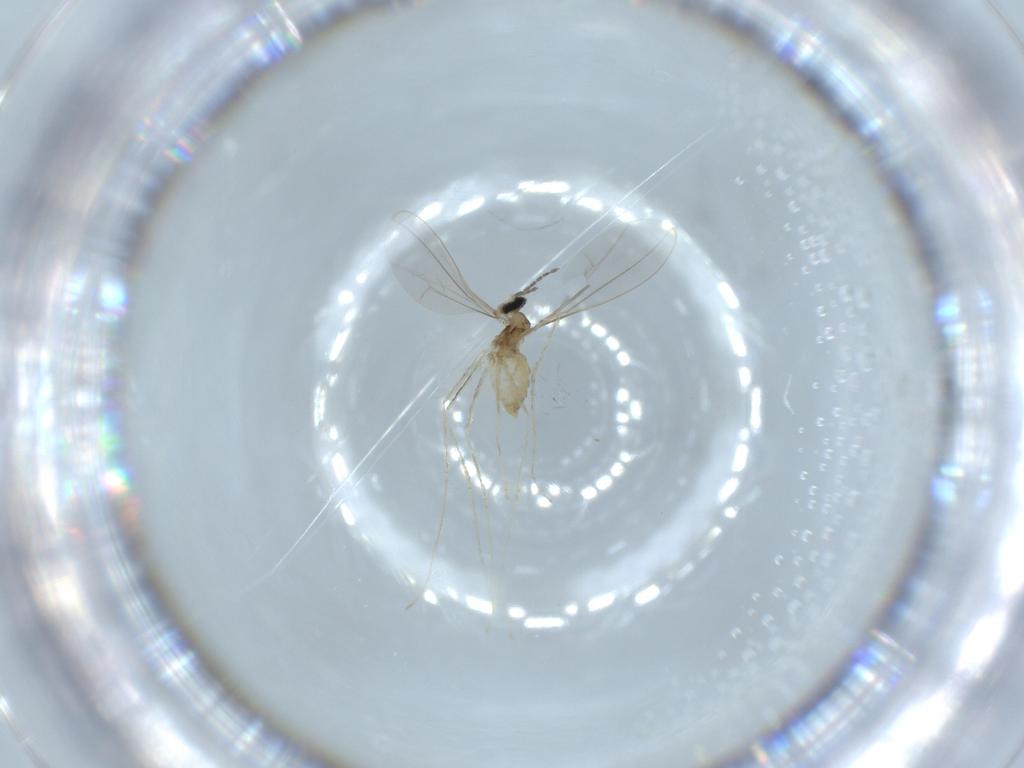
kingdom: Animalia
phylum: Arthropoda
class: Insecta
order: Diptera
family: Cecidomyiidae
